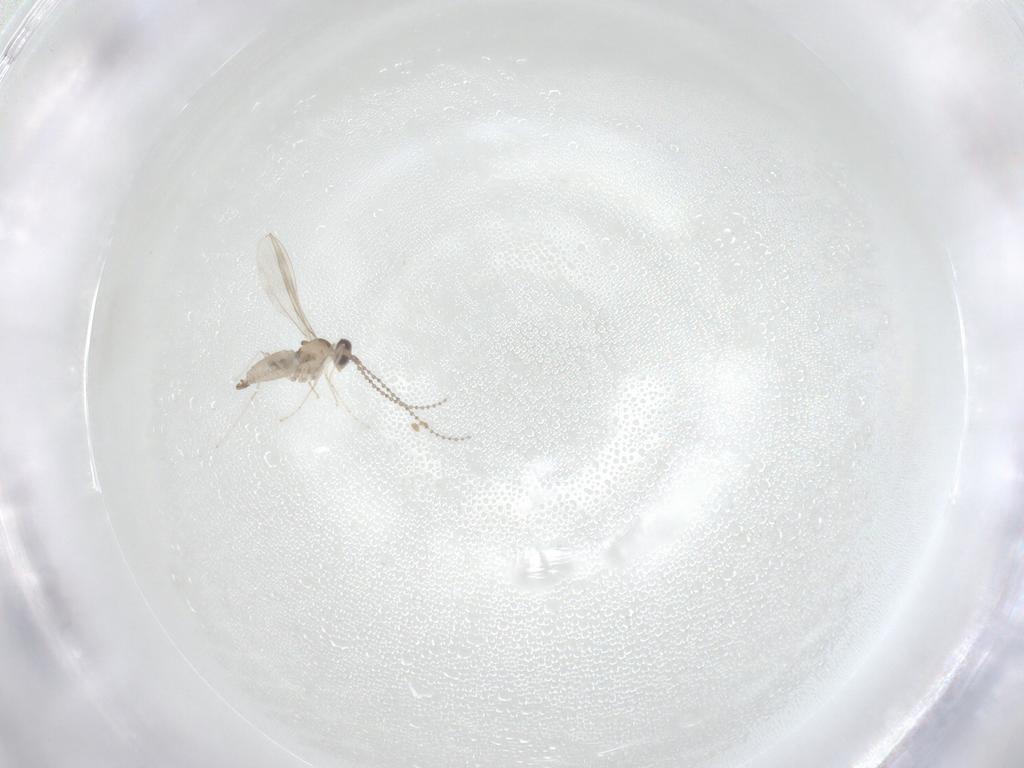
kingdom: Animalia
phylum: Arthropoda
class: Insecta
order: Diptera
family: Cecidomyiidae
